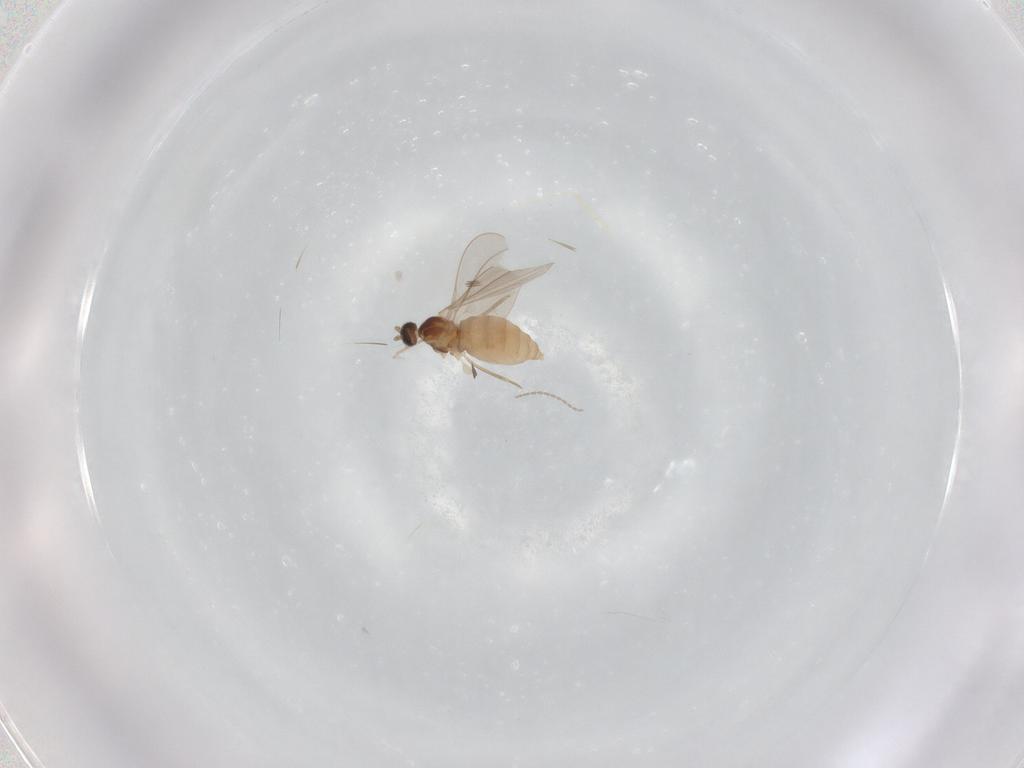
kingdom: Animalia
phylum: Arthropoda
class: Insecta
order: Diptera
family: Cecidomyiidae
